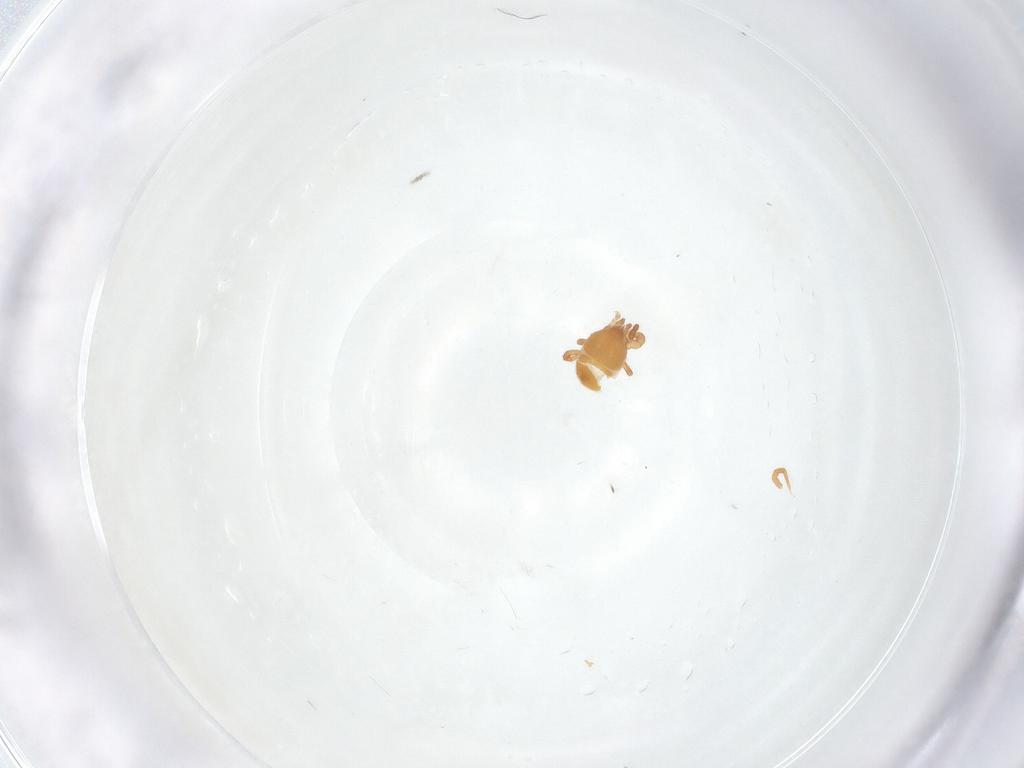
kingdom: Animalia
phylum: Arthropoda
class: Arachnida
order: Mesostigmata
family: Parasitidae
